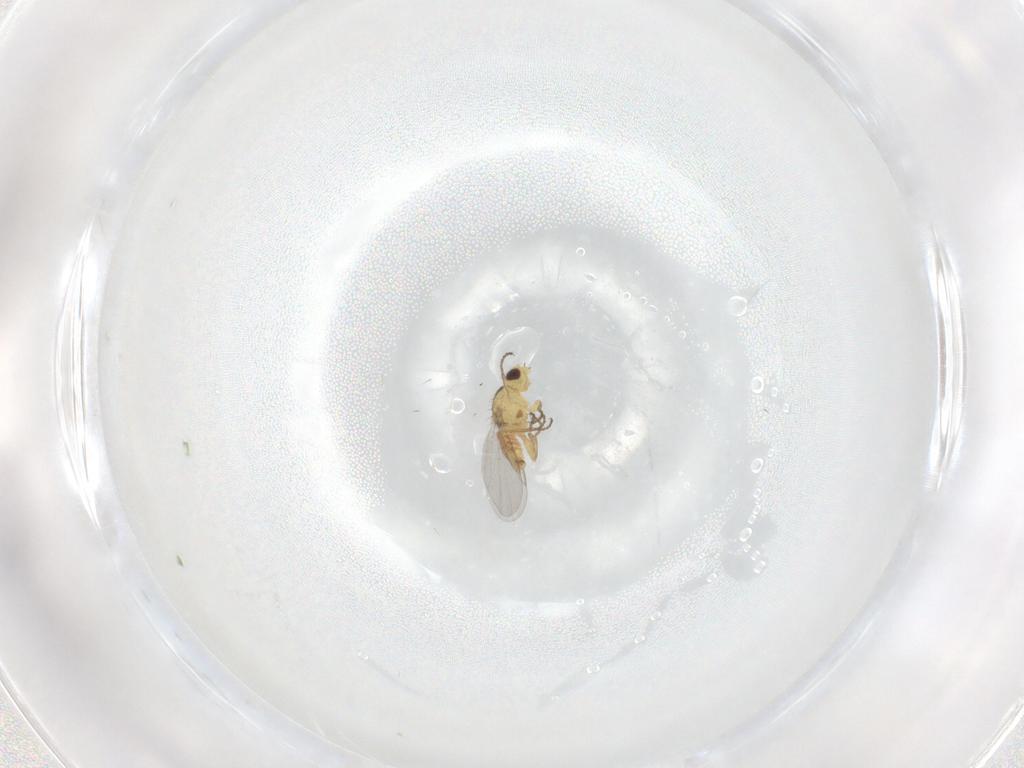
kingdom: Animalia
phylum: Arthropoda
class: Insecta
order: Diptera
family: Agromyzidae
